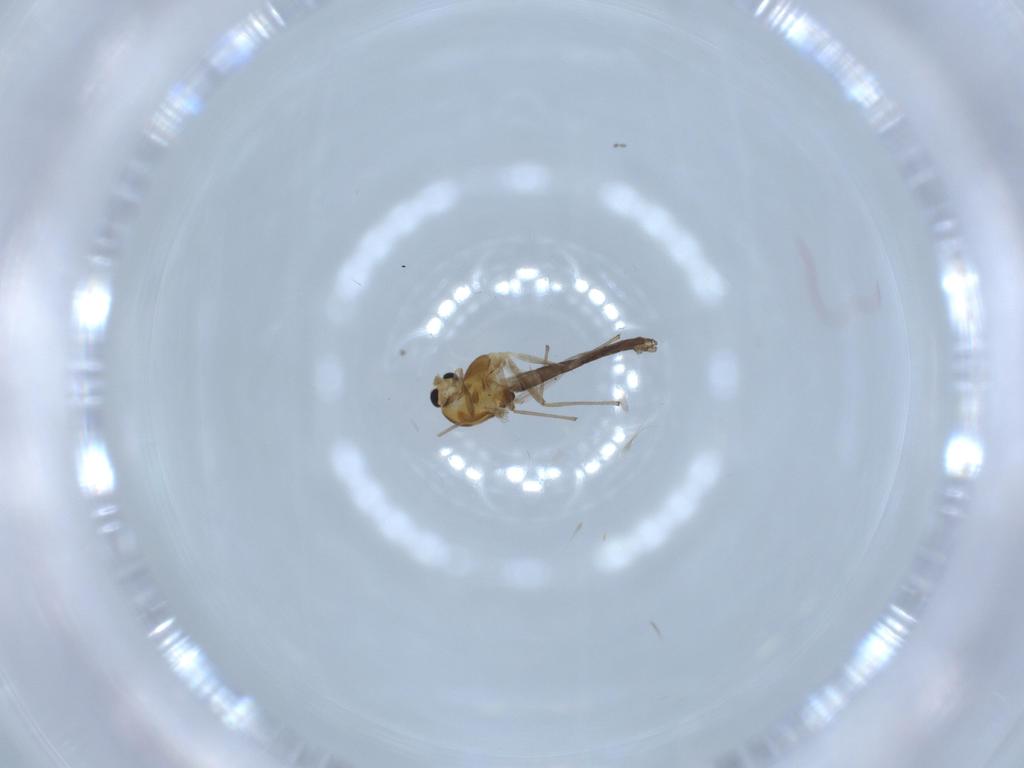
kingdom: Animalia
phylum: Arthropoda
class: Insecta
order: Diptera
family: Chironomidae
